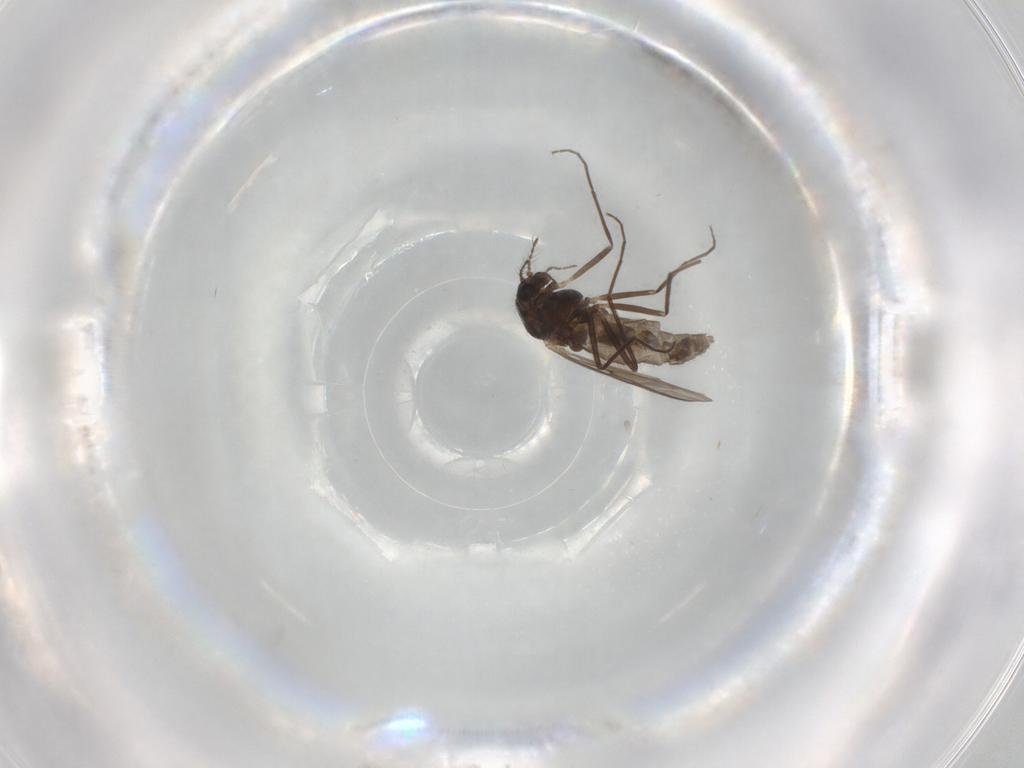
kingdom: Animalia
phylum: Arthropoda
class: Insecta
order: Diptera
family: Chironomidae
